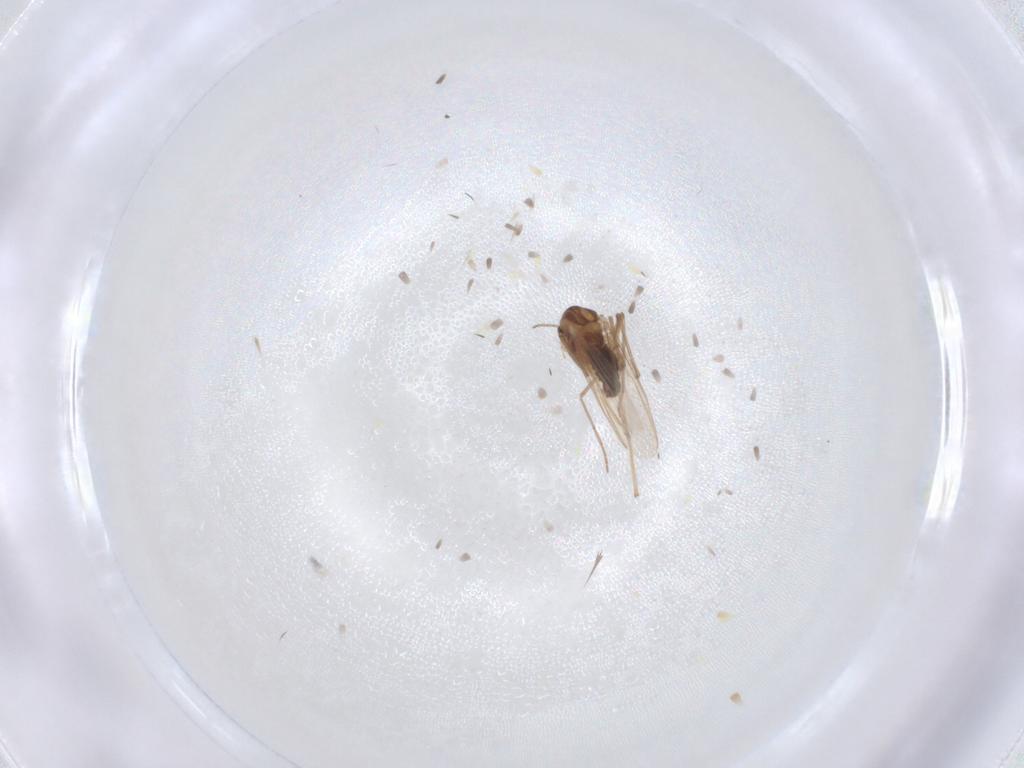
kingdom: Animalia
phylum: Arthropoda
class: Insecta
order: Diptera
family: Chironomidae
